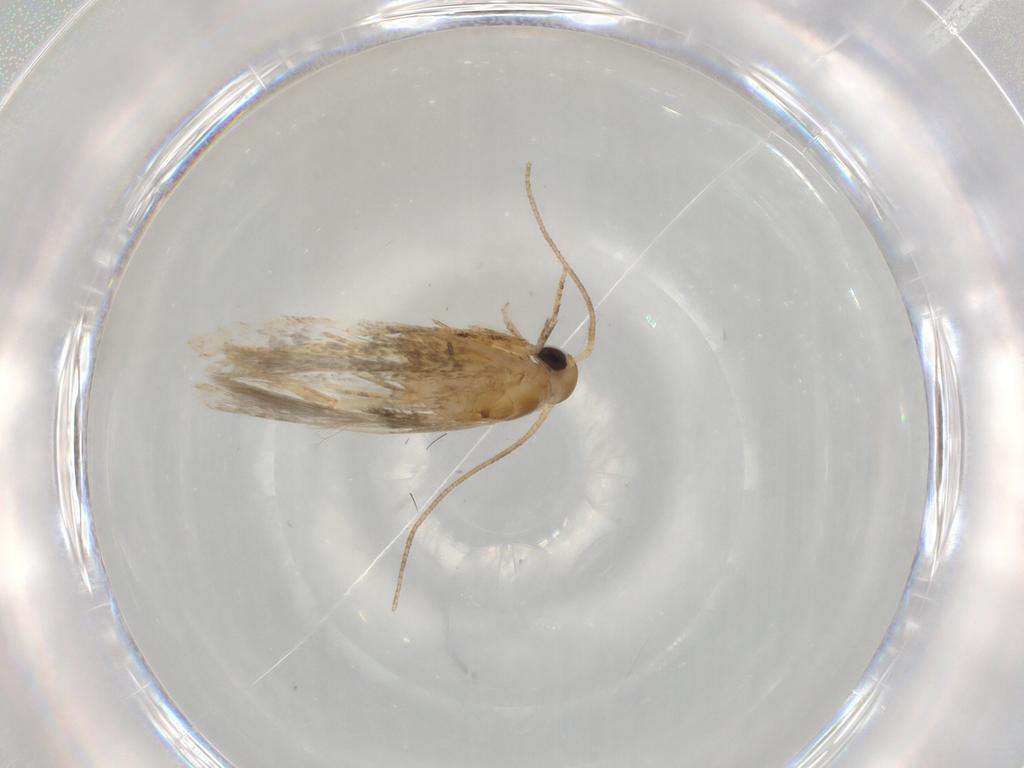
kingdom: Animalia
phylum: Arthropoda
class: Insecta
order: Lepidoptera
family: Blastobasidae
